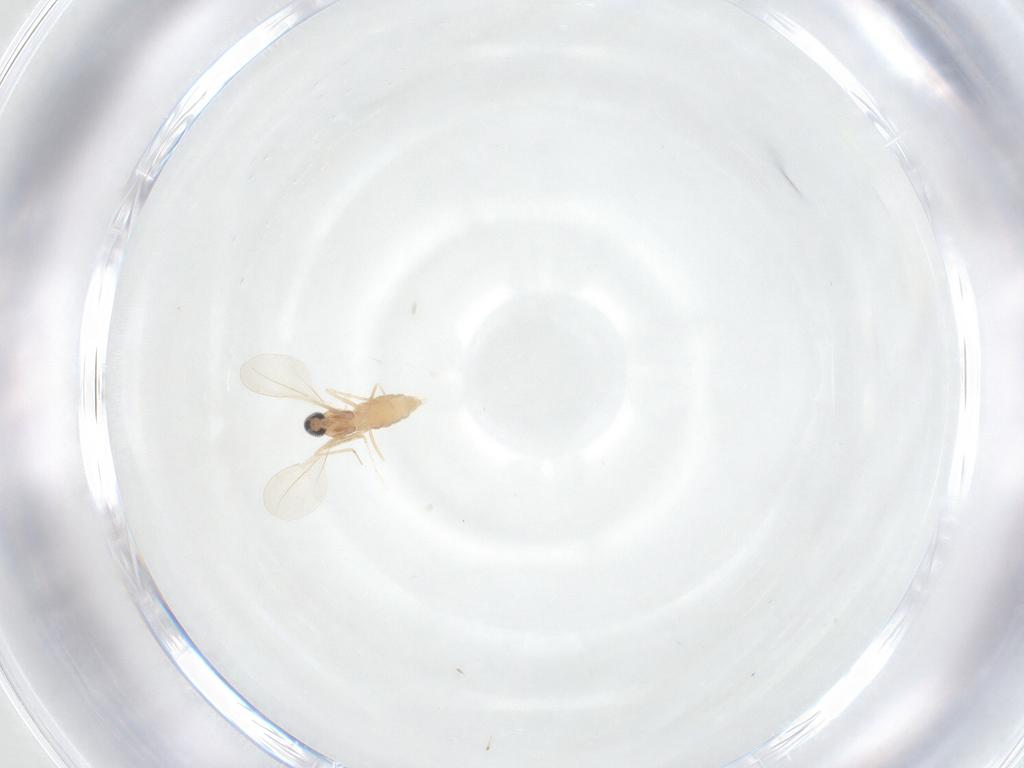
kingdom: Animalia
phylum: Arthropoda
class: Insecta
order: Diptera
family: Cecidomyiidae
